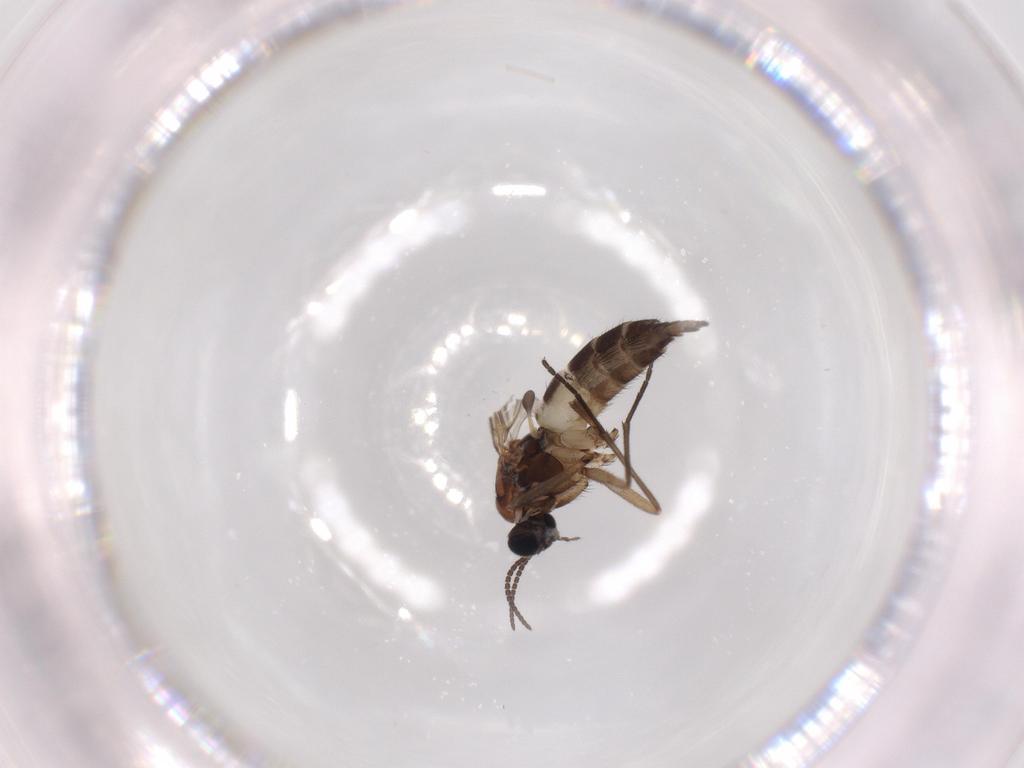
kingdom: Animalia
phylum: Arthropoda
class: Insecta
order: Diptera
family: Sciaridae
